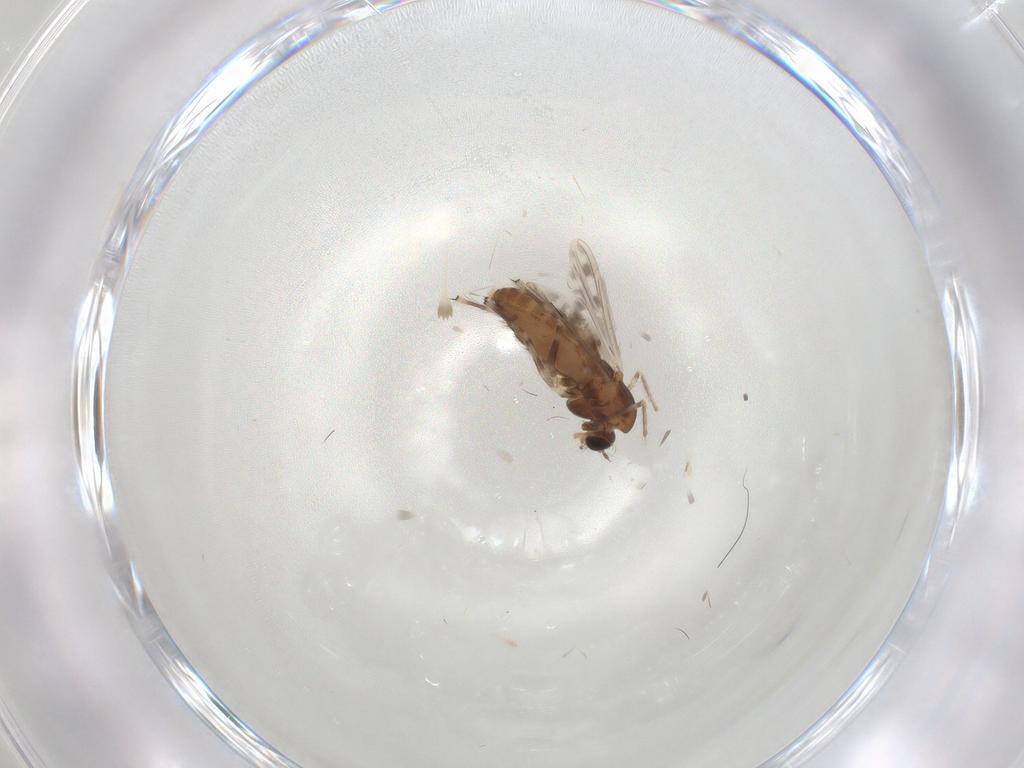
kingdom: Animalia
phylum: Arthropoda
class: Insecta
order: Diptera
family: Chironomidae
